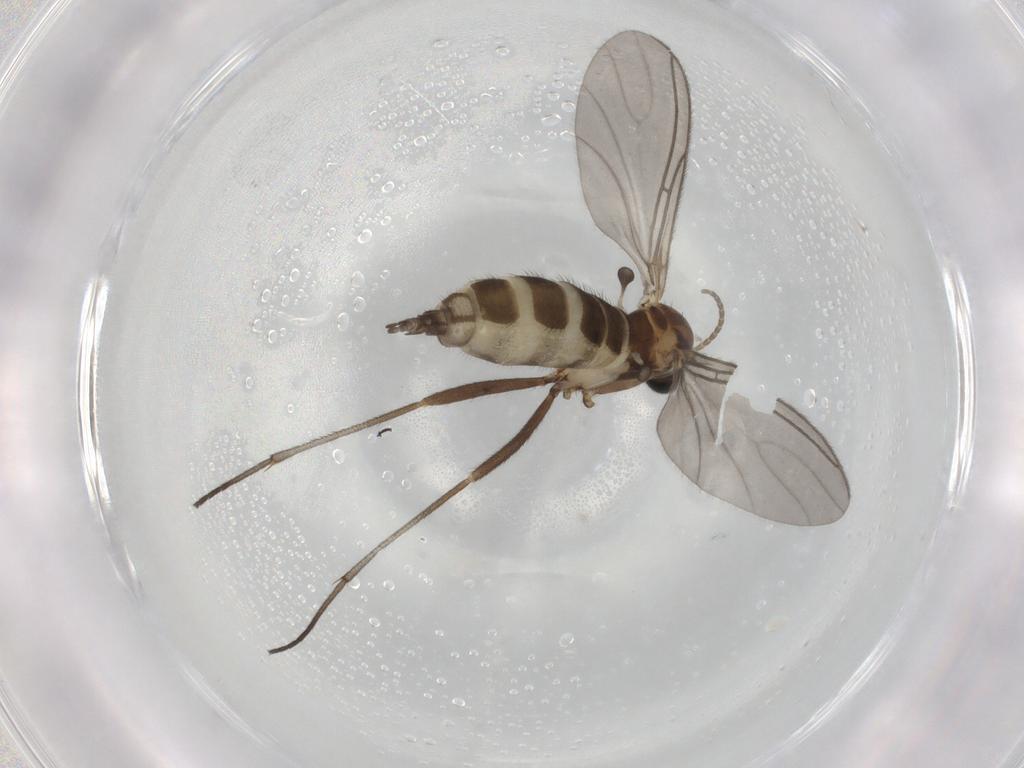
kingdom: Animalia
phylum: Arthropoda
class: Insecta
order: Diptera
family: Sciaridae
